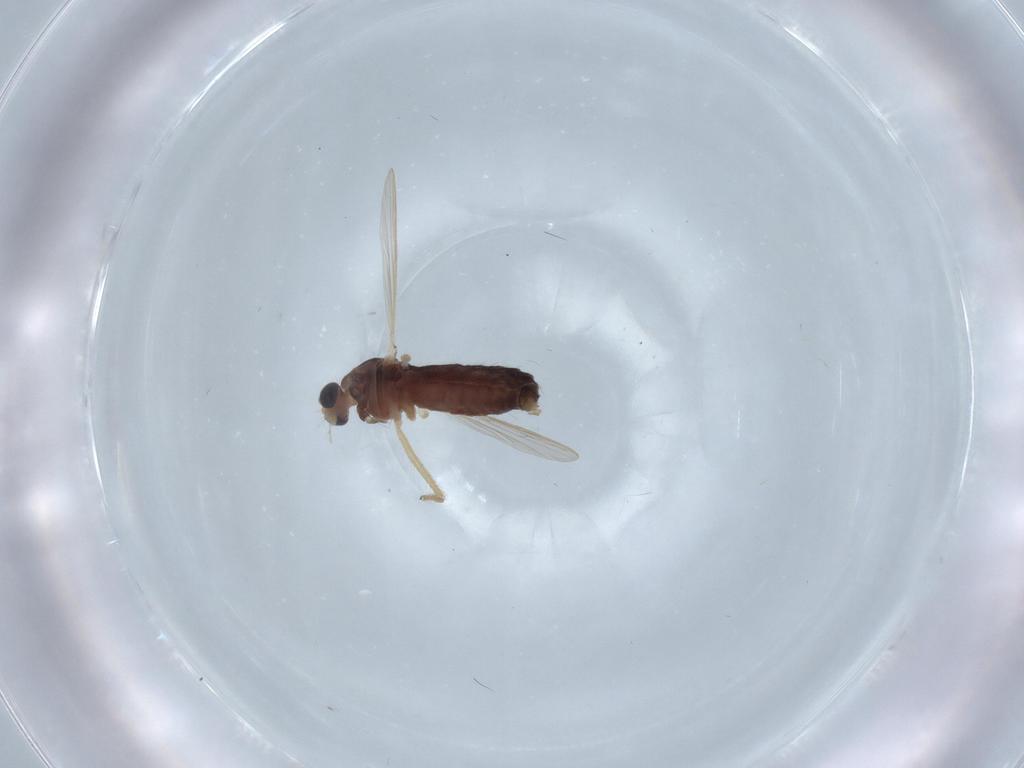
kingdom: Animalia
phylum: Arthropoda
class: Insecta
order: Diptera
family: Chironomidae
